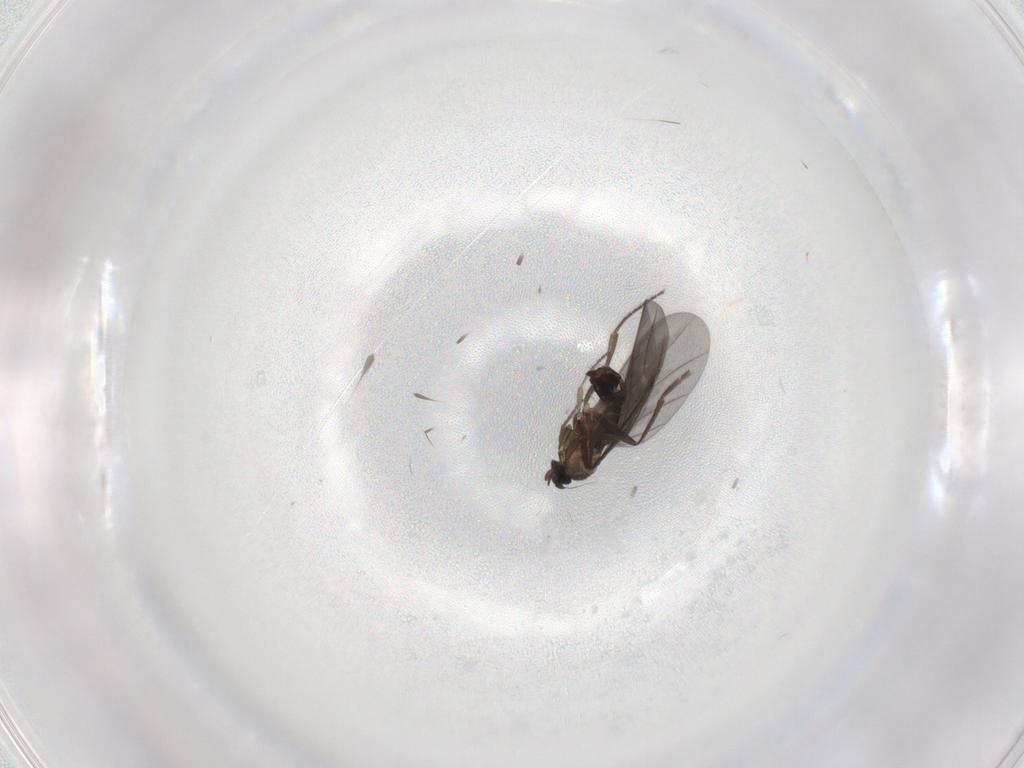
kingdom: Animalia
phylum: Arthropoda
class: Insecta
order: Diptera
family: Phoridae
